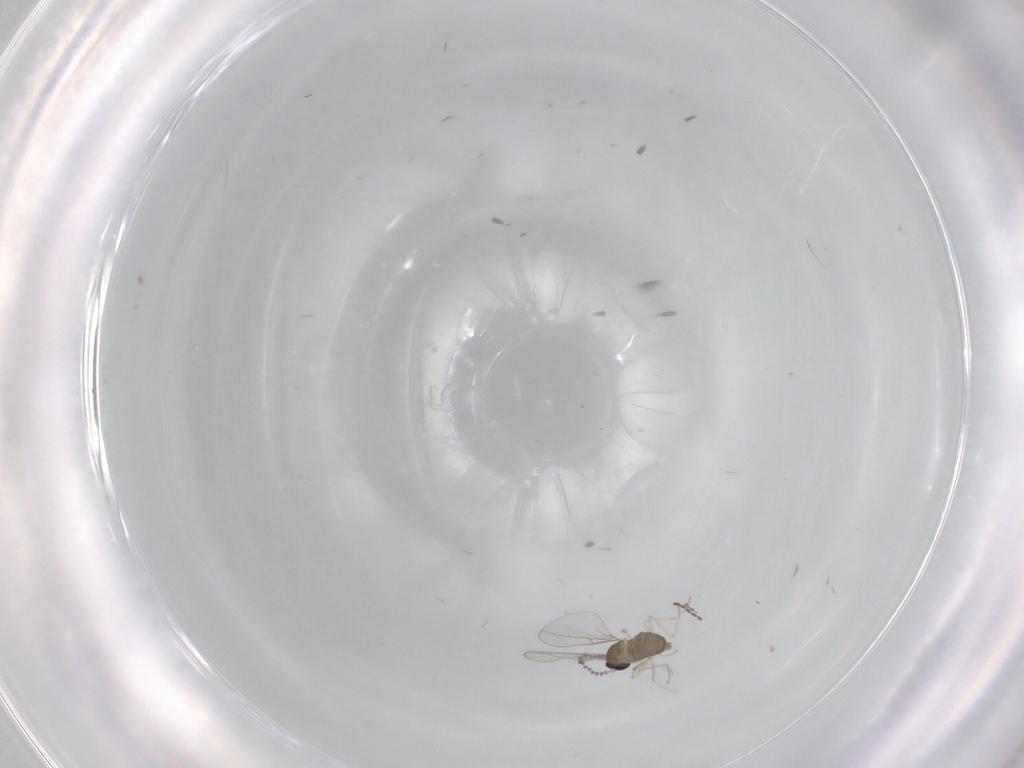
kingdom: Animalia
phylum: Arthropoda
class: Insecta
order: Diptera
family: Cecidomyiidae
